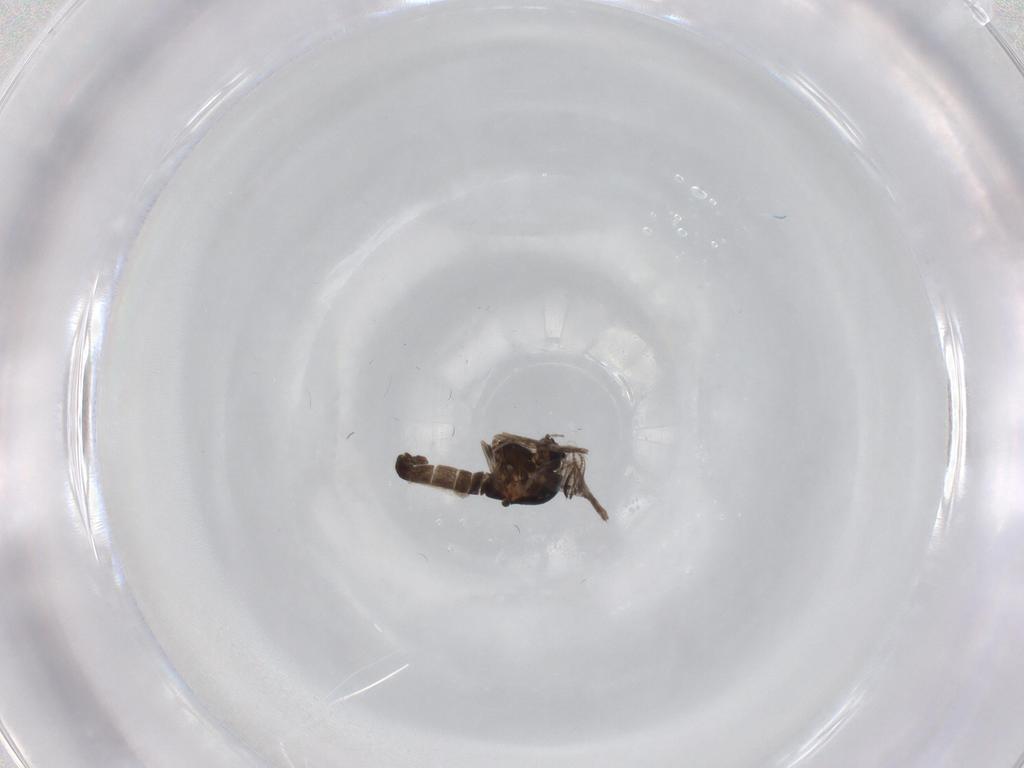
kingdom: Animalia
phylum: Arthropoda
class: Insecta
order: Diptera
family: Chironomidae
